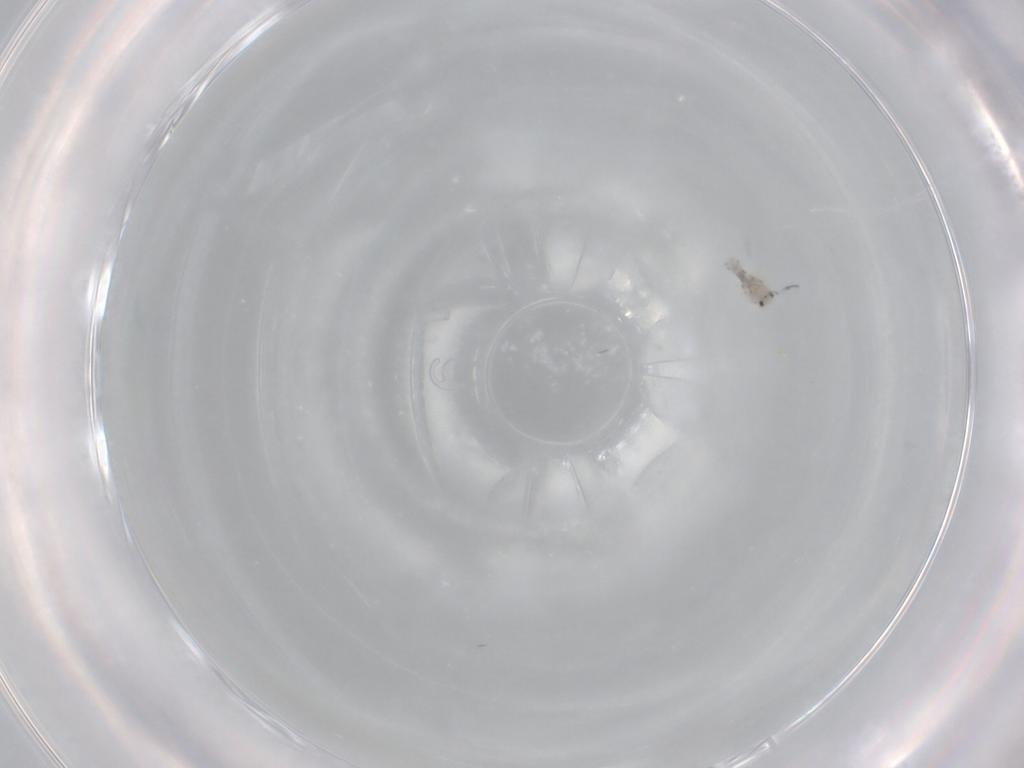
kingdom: Animalia
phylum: Arthropoda
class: Collembola
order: Entomobryomorpha
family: Entomobryidae
